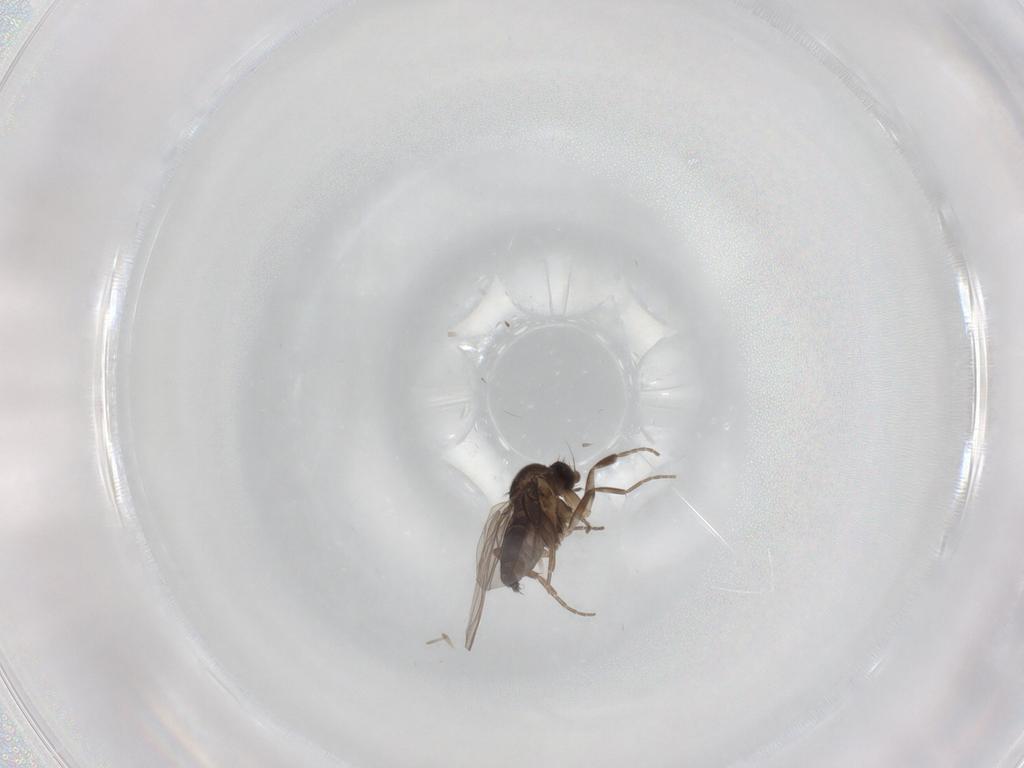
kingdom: Animalia
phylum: Arthropoda
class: Insecta
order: Diptera
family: Phoridae
